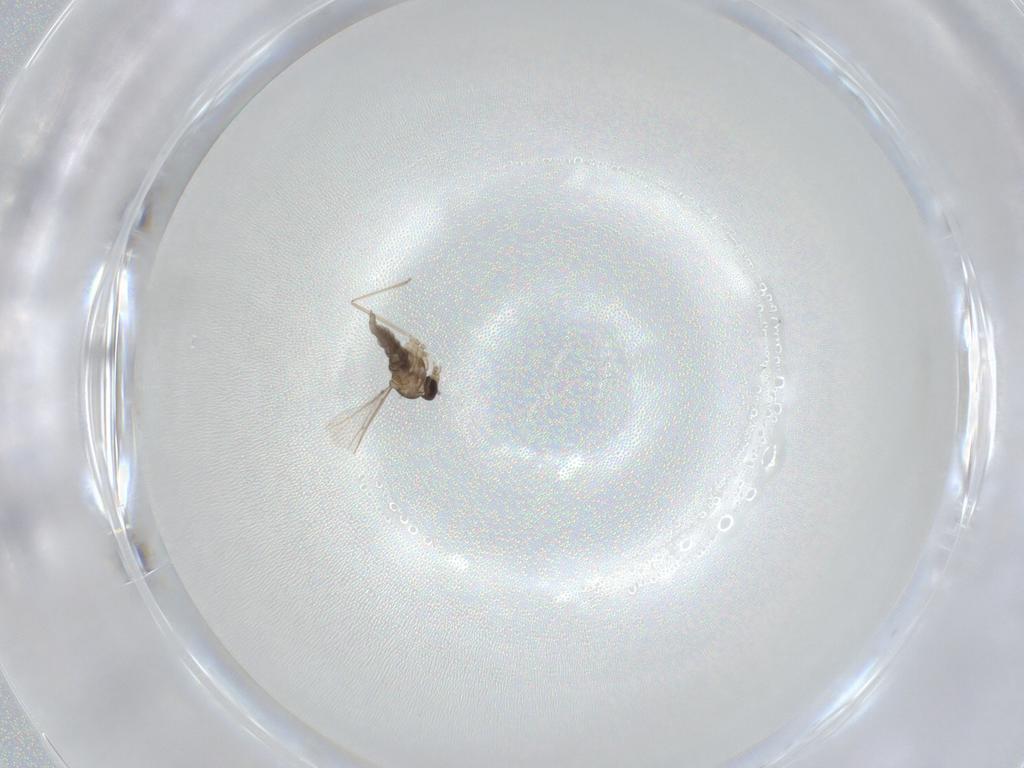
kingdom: Animalia
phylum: Arthropoda
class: Insecta
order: Diptera
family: Cecidomyiidae
